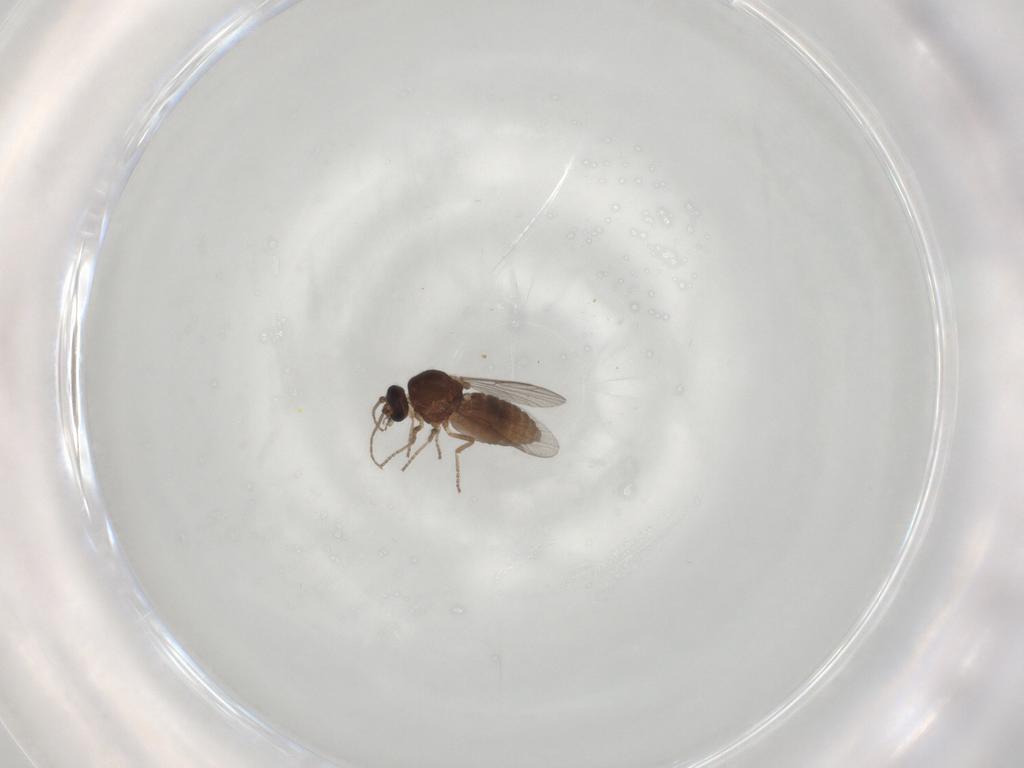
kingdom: Animalia
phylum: Arthropoda
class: Insecta
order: Diptera
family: Ceratopogonidae
